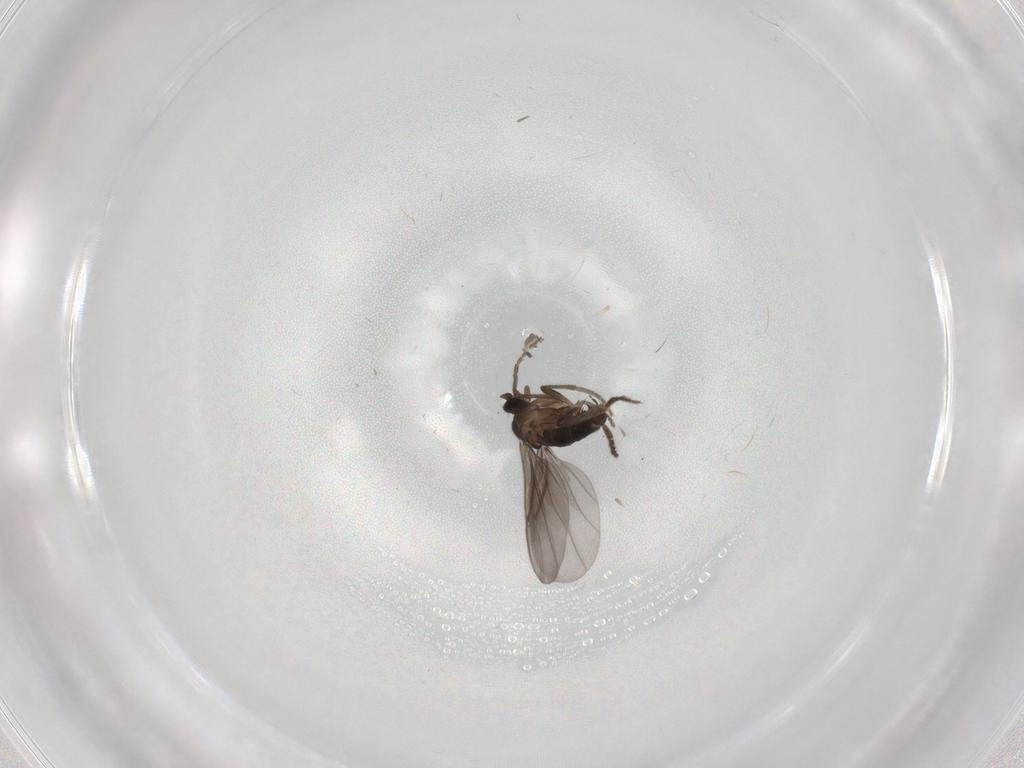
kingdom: Animalia
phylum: Arthropoda
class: Insecta
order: Diptera
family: Phoridae
